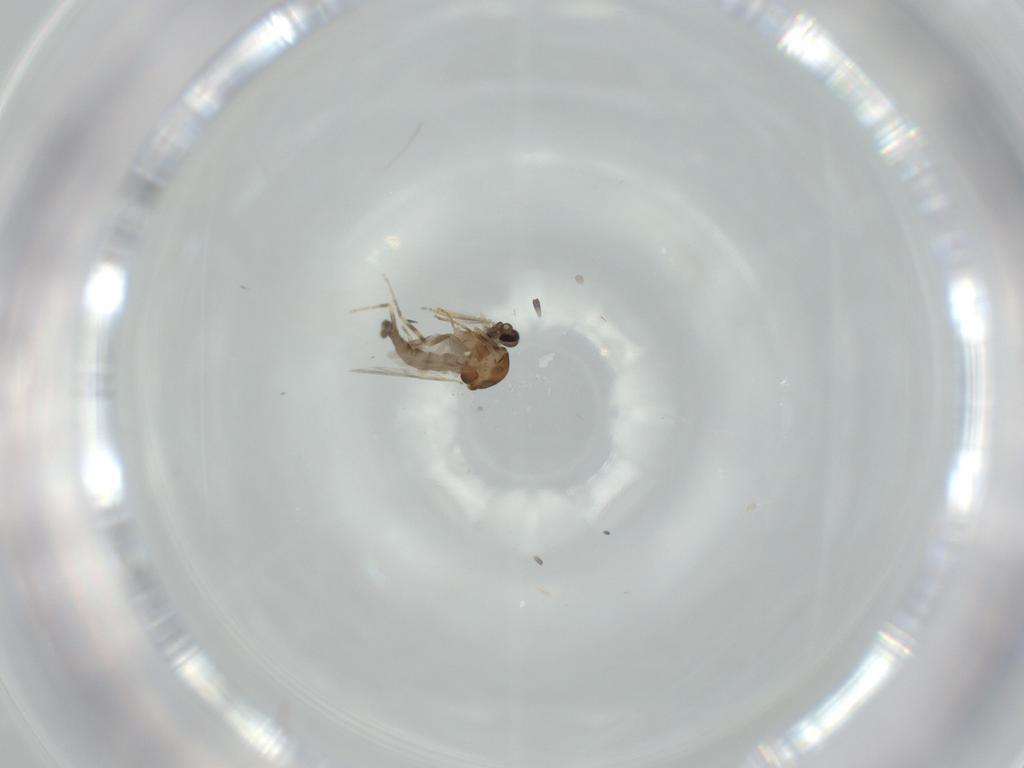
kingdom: Animalia
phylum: Arthropoda
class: Insecta
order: Diptera
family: Ceratopogonidae
